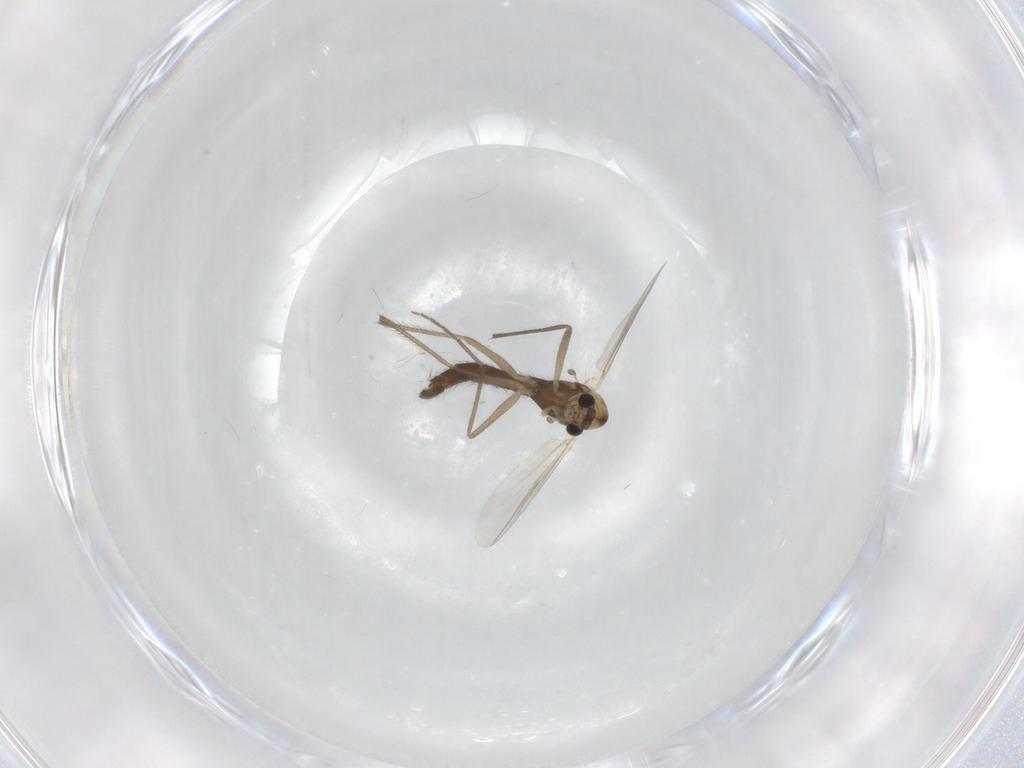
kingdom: Animalia
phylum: Arthropoda
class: Insecta
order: Diptera
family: Chironomidae
